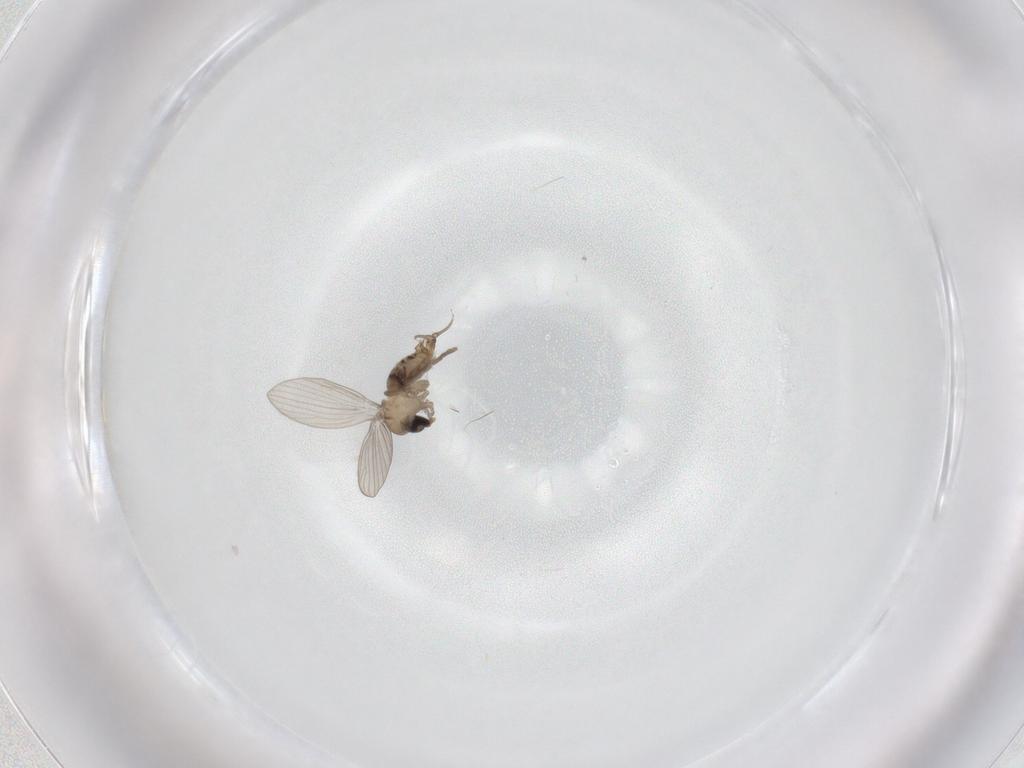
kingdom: Animalia
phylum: Arthropoda
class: Insecta
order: Diptera
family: Psychodidae
